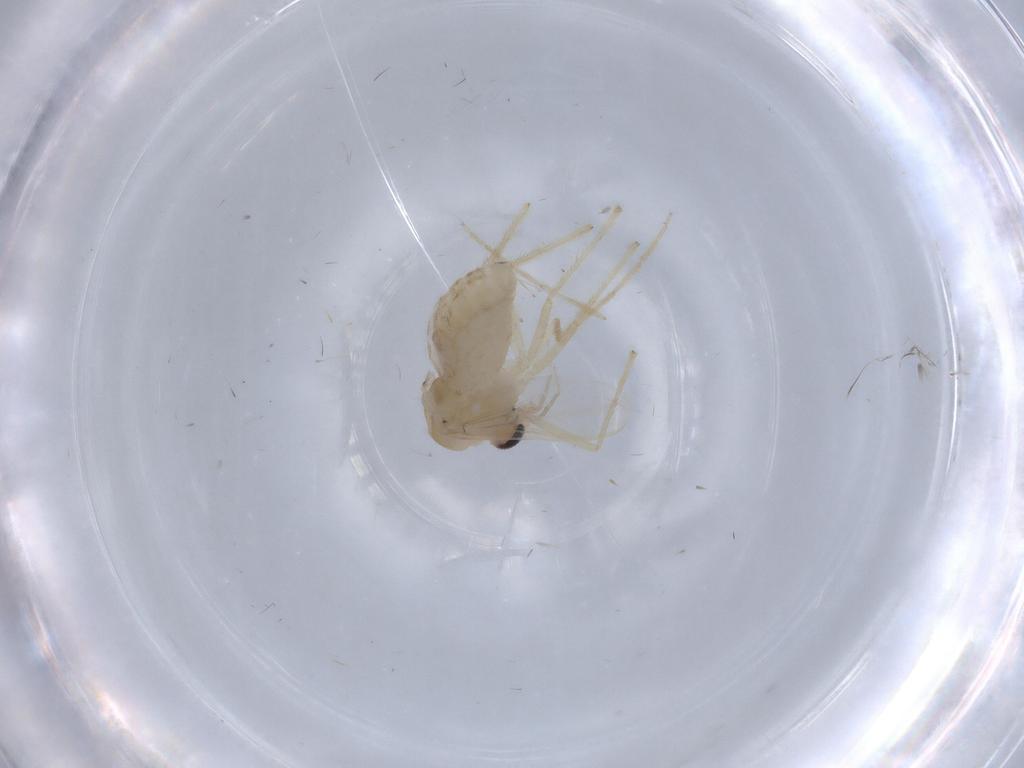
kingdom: Animalia
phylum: Arthropoda
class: Insecta
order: Diptera
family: Chironomidae
